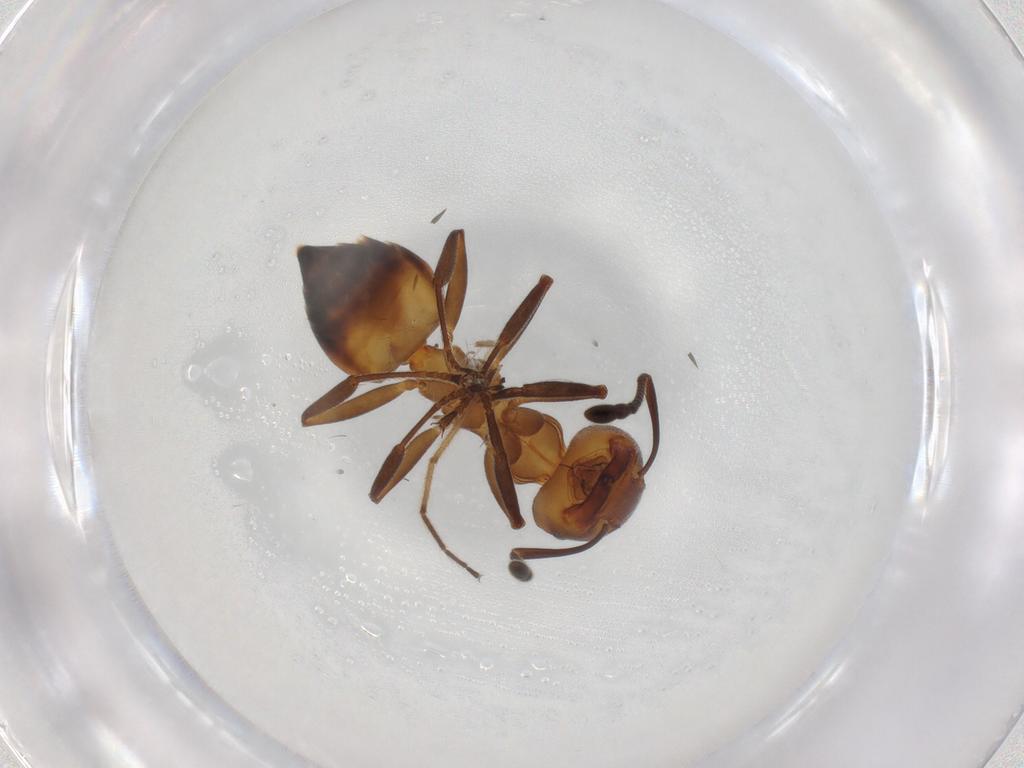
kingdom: Animalia
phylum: Arthropoda
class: Insecta
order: Hymenoptera
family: Formicidae
